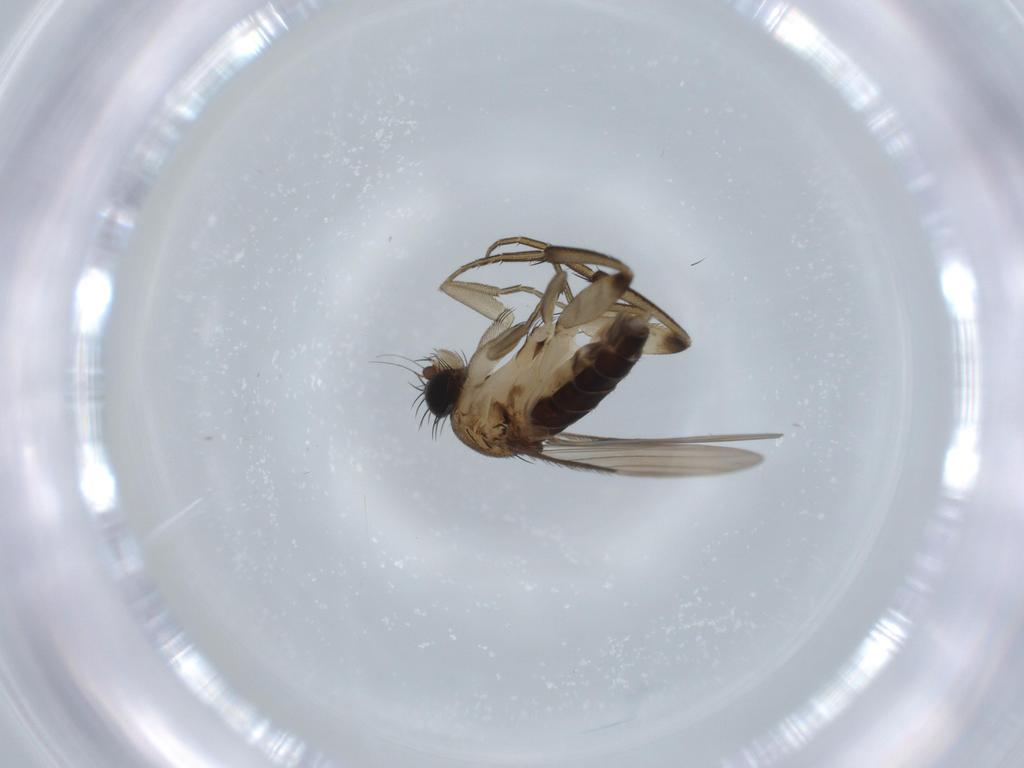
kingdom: Animalia
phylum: Arthropoda
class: Insecta
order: Diptera
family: Phoridae
